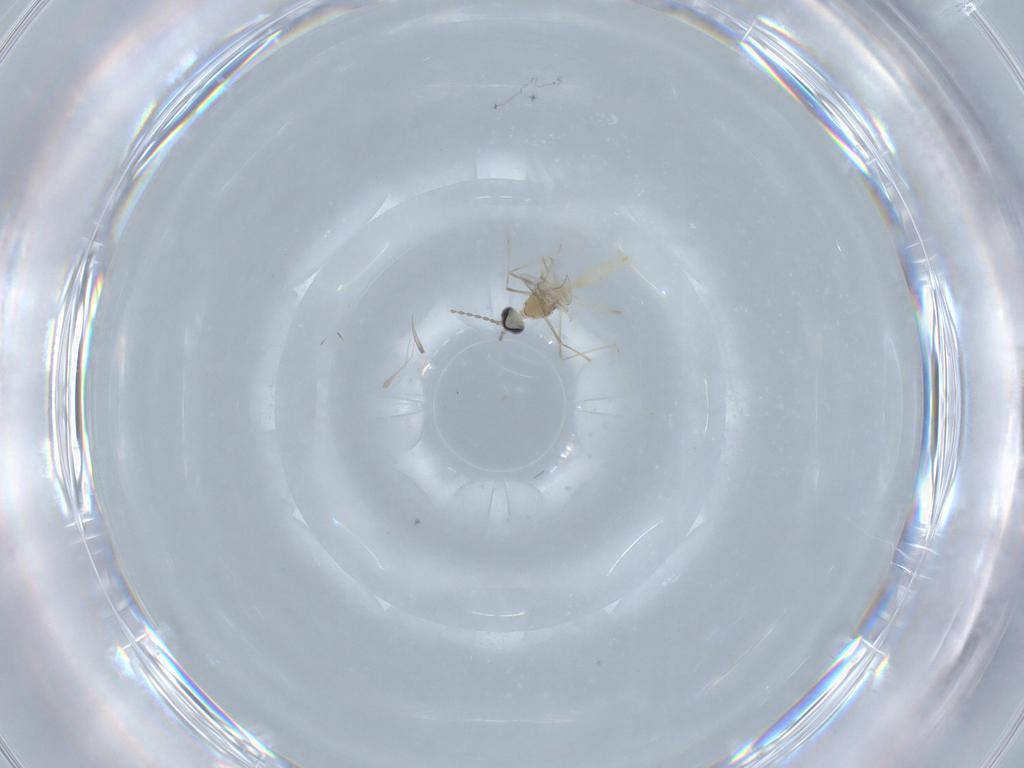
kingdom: Animalia
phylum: Arthropoda
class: Insecta
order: Diptera
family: Cecidomyiidae
